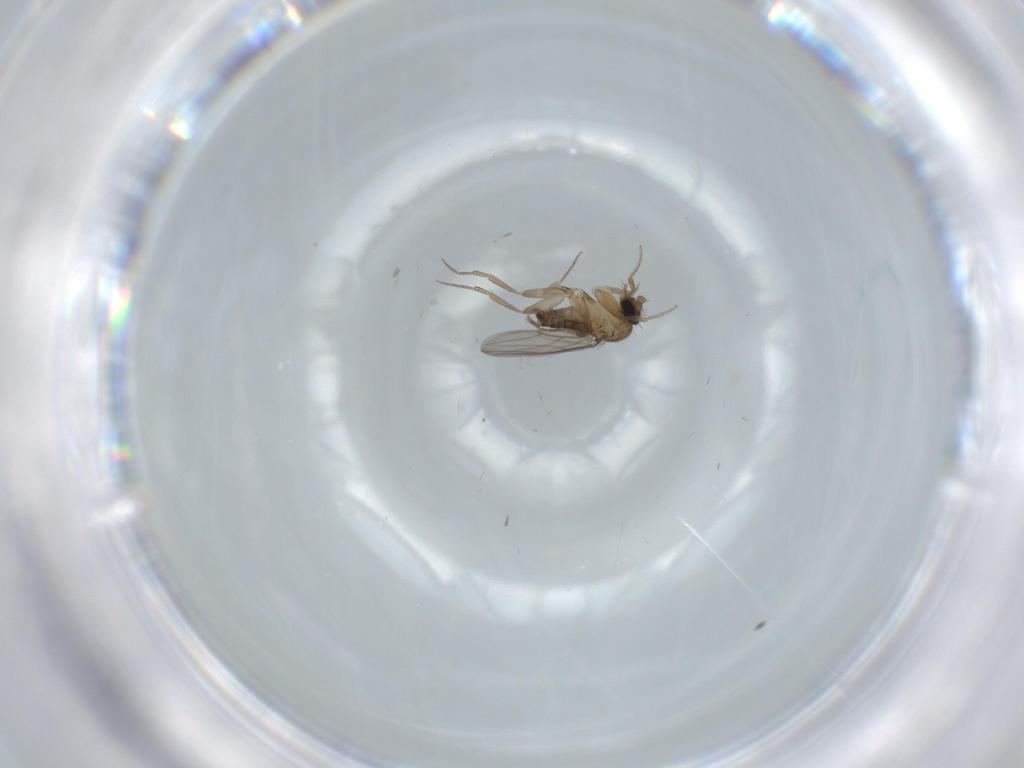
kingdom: Animalia
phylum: Arthropoda
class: Insecta
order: Diptera
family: Phoridae
